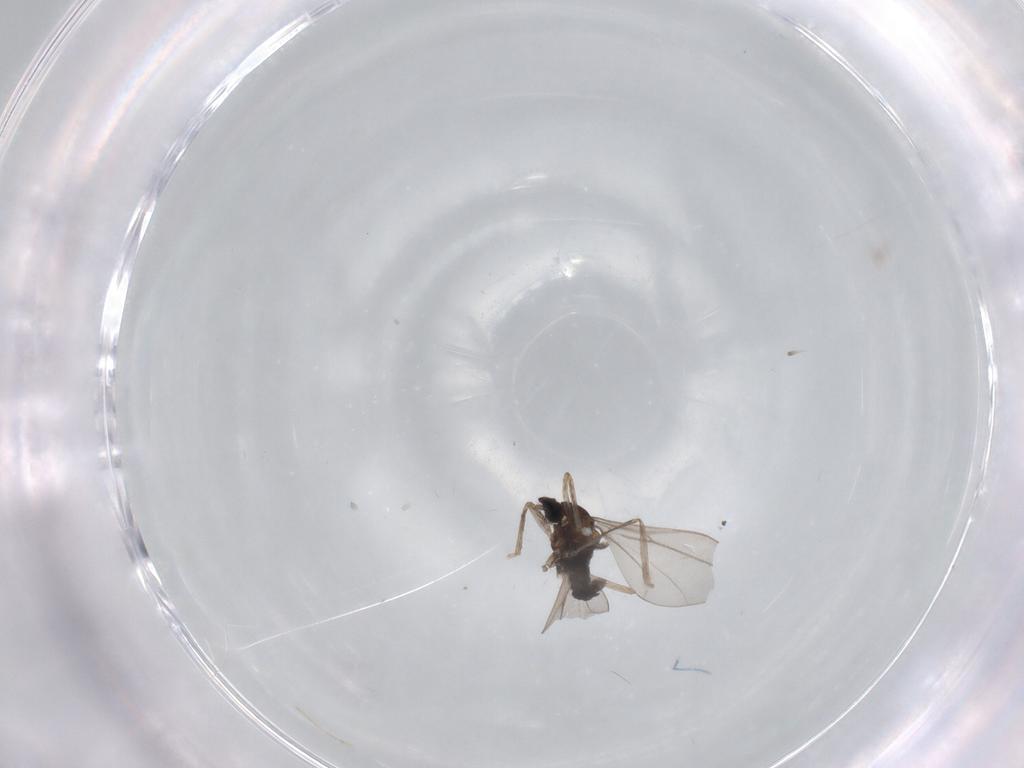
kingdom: Animalia
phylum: Arthropoda
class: Insecta
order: Diptera
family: Cecidomyiidae
